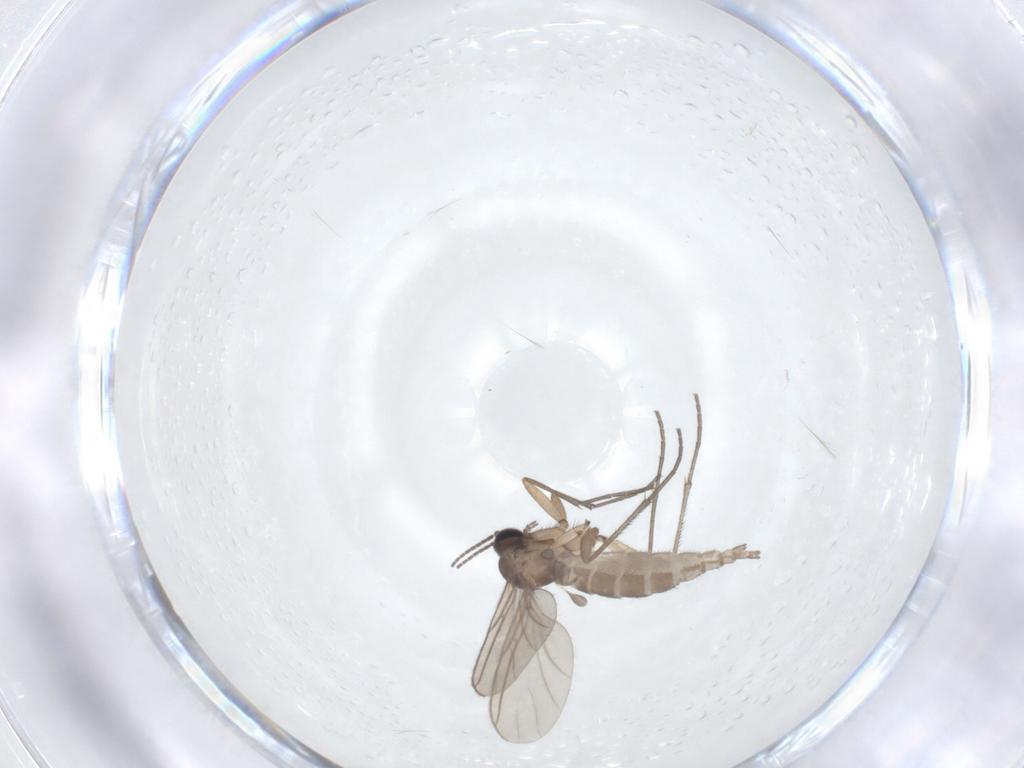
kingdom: Animalia
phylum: Arthropoda
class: Insecta
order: Diptera
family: Sciaridae
